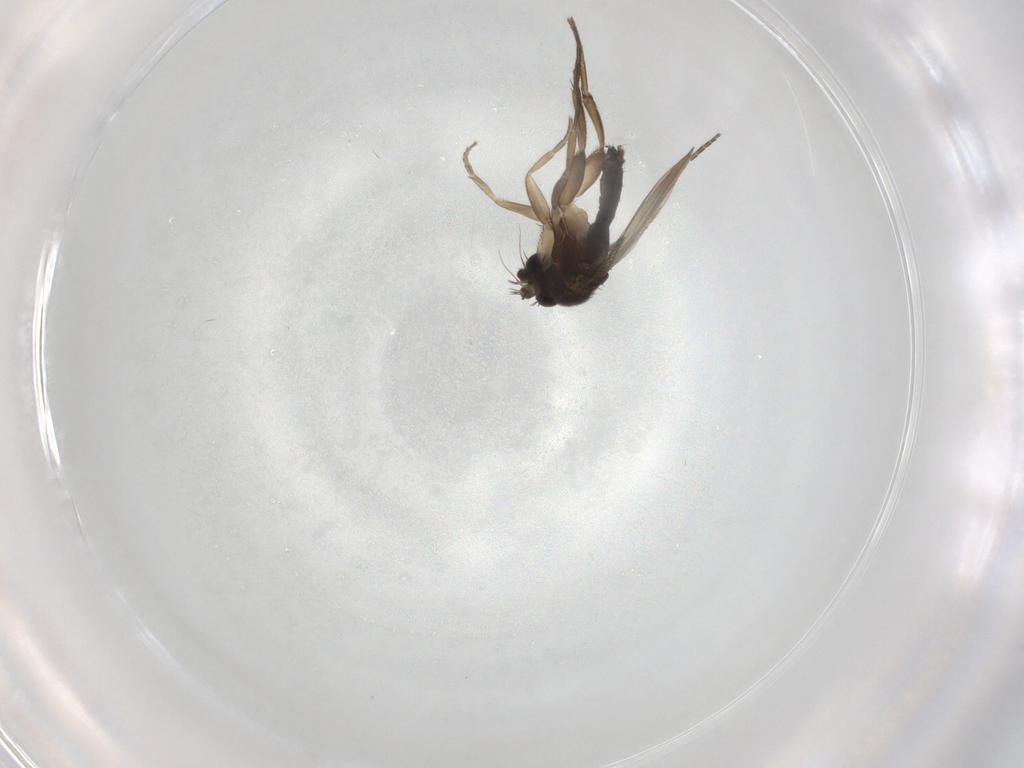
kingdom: Animalia
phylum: Arthropoda
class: Insecta
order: Diptera
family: Phoridae
